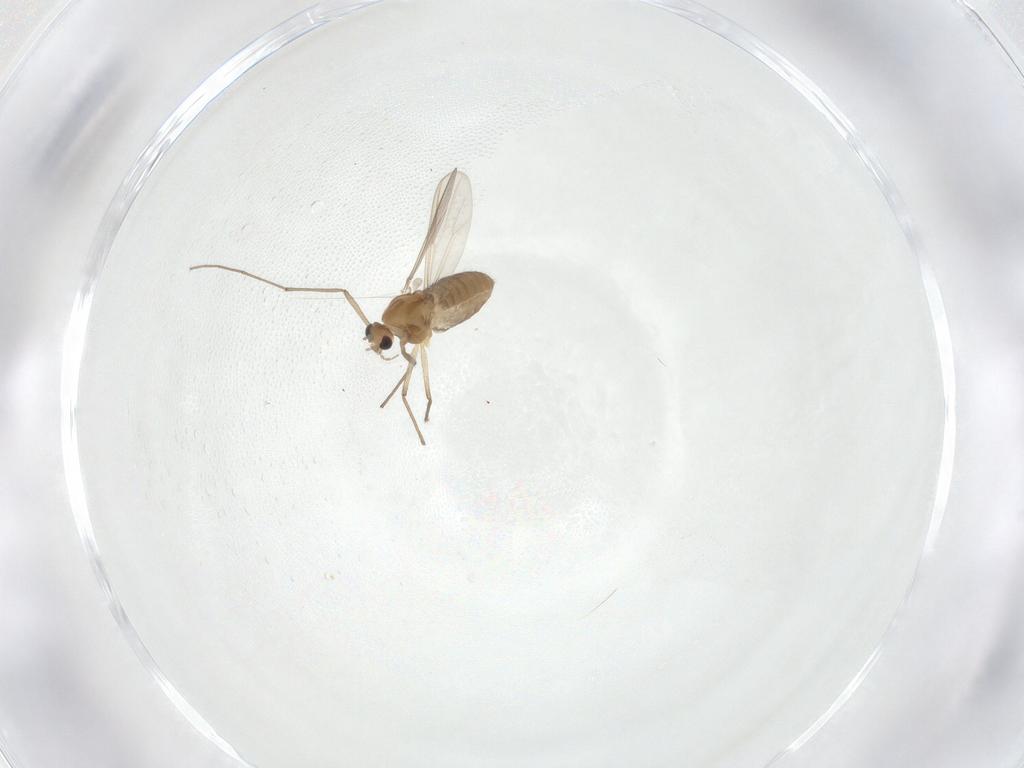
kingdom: Animalia
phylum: Arthropoda
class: Insecta
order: Diptera
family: Chironomidae
